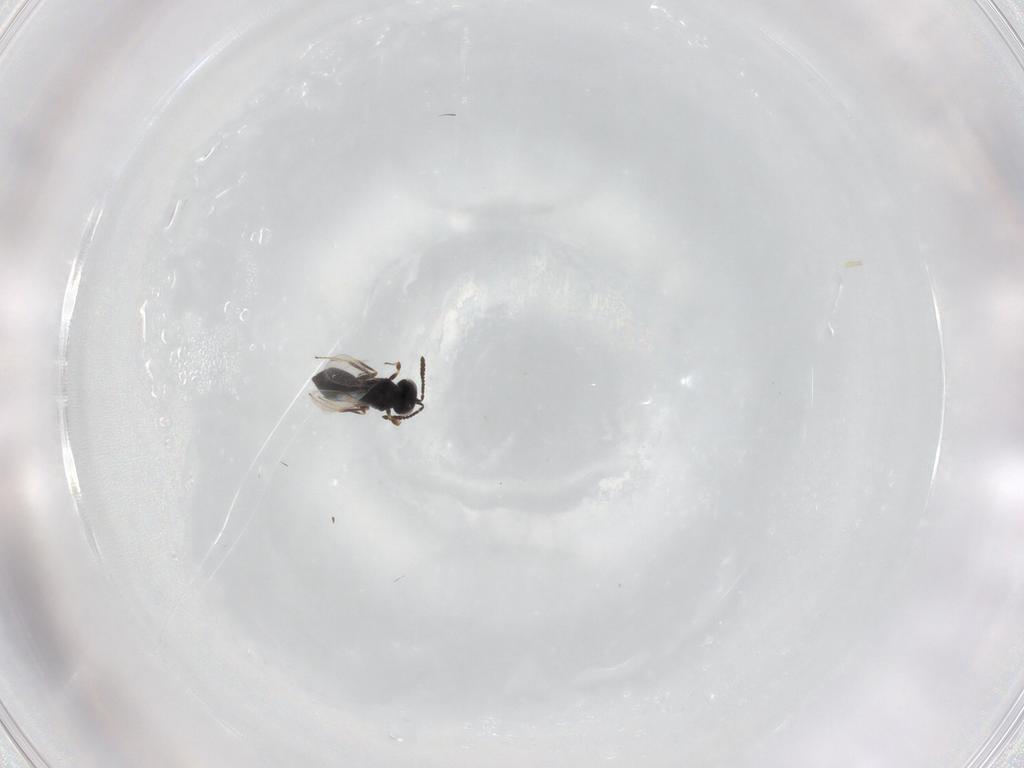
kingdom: Animalia
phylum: Arthropoda
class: Insecta
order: Hymenoptera
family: Scelionidae
